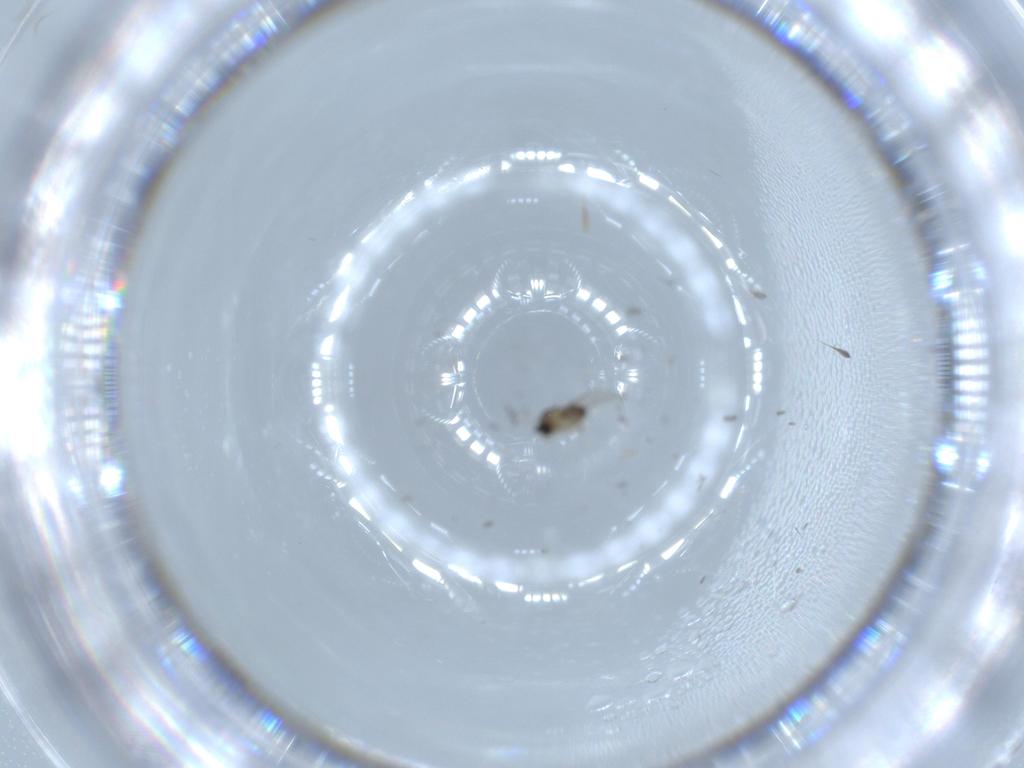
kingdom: Animalia
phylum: Arthropoda
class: Insecta
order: Diptera
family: Cecidomyiidae
